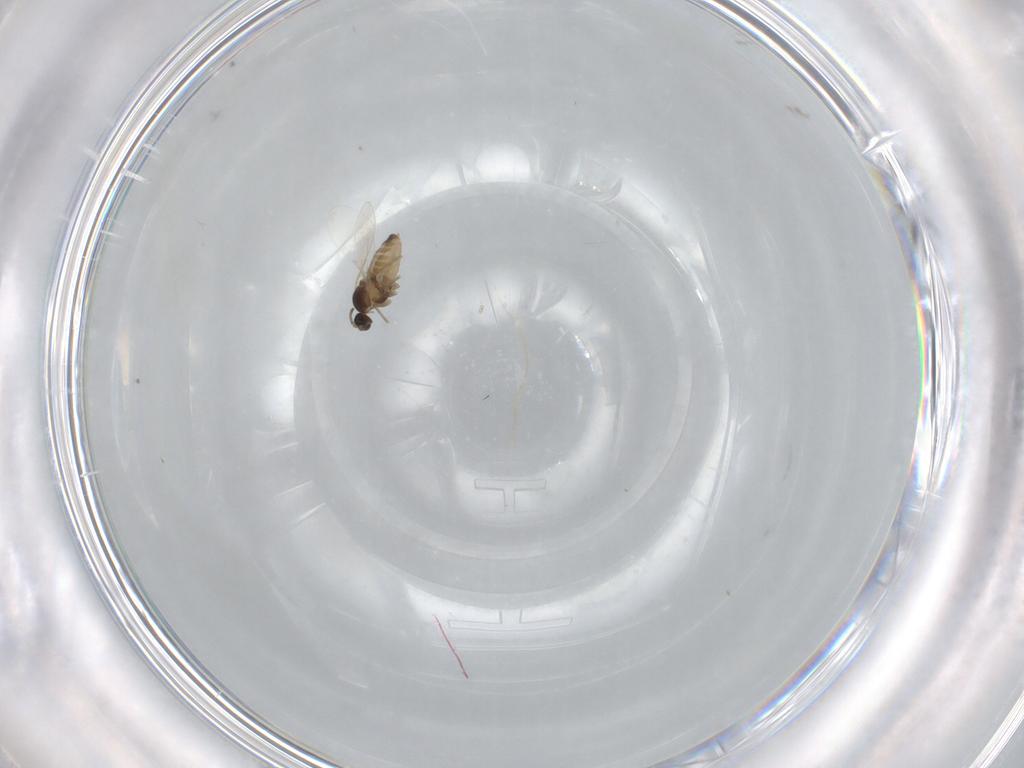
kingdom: Animalia
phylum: Arthropoda
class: Insecta
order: Diptera
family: Cecidomyiidae
